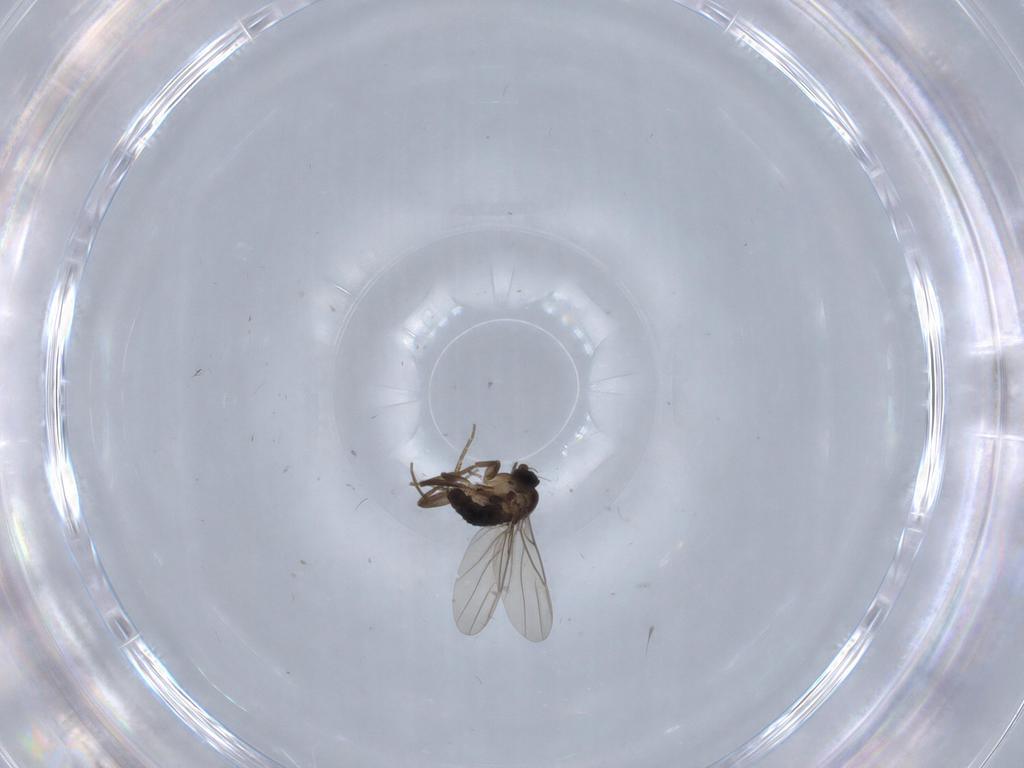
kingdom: Animalia
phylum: Arthropoda
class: Insecta
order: Diptera
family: Phoridae
